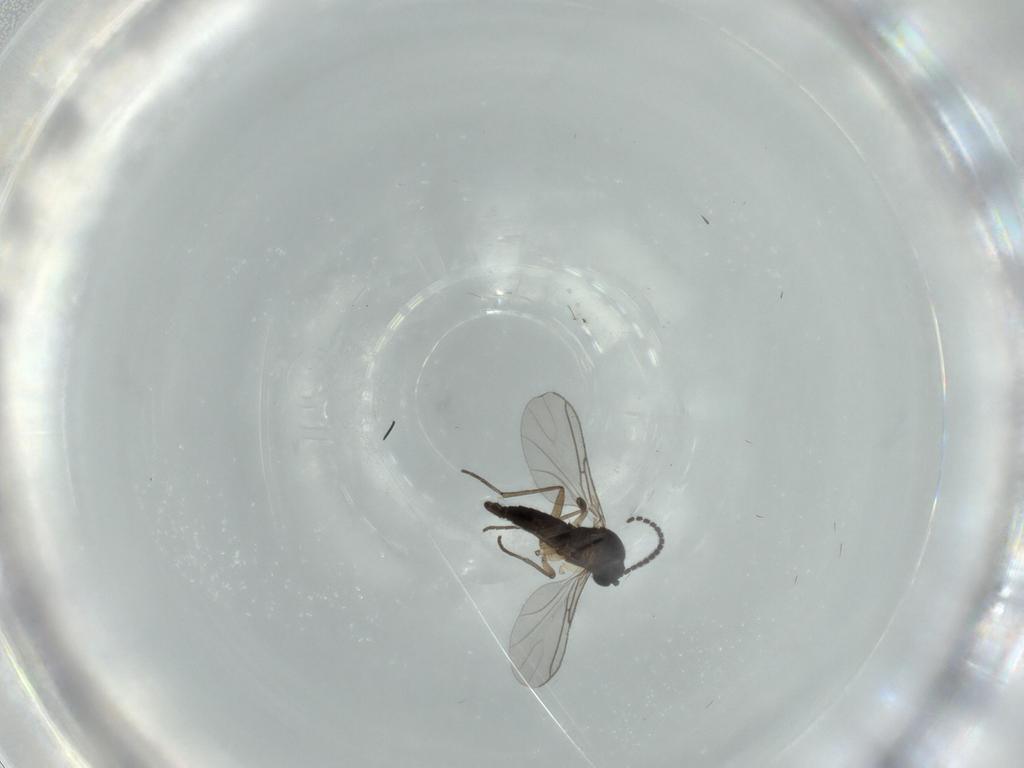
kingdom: Animalia
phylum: Arthropoda
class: Insecta
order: Diptera
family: Sciaridae
